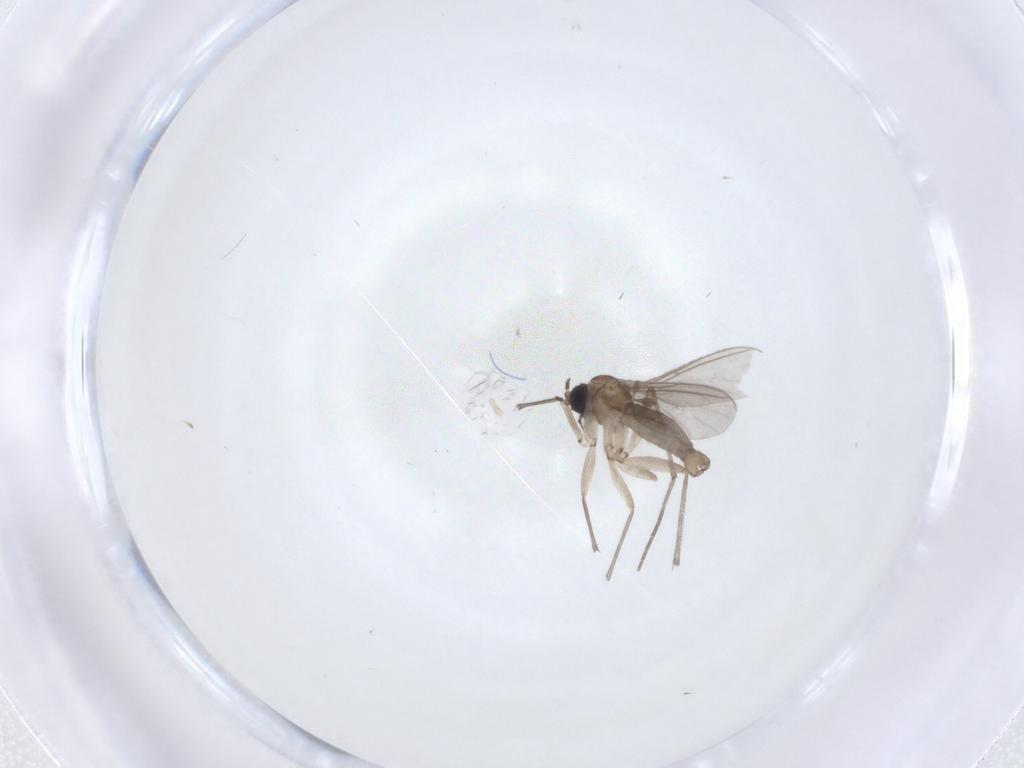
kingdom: Animalia
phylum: Arthropoda
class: Insecta
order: Diptera
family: Sciaridae
